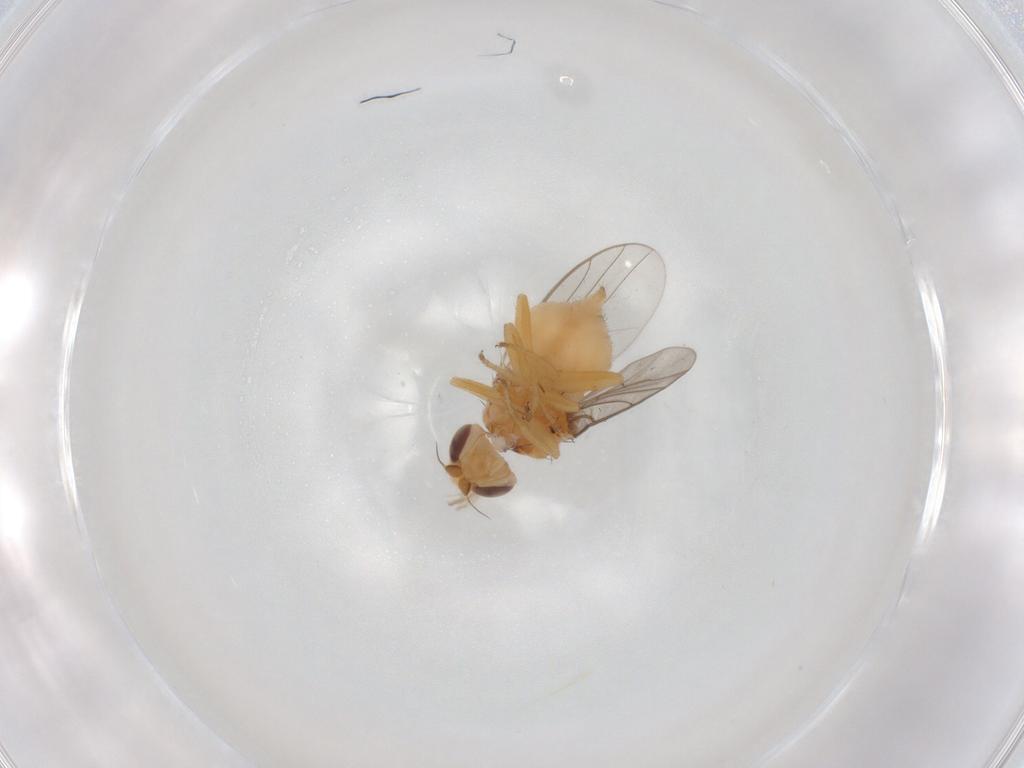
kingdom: Animalia
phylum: Arthropoda
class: Insecta
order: Diptera
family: Chloropidae
